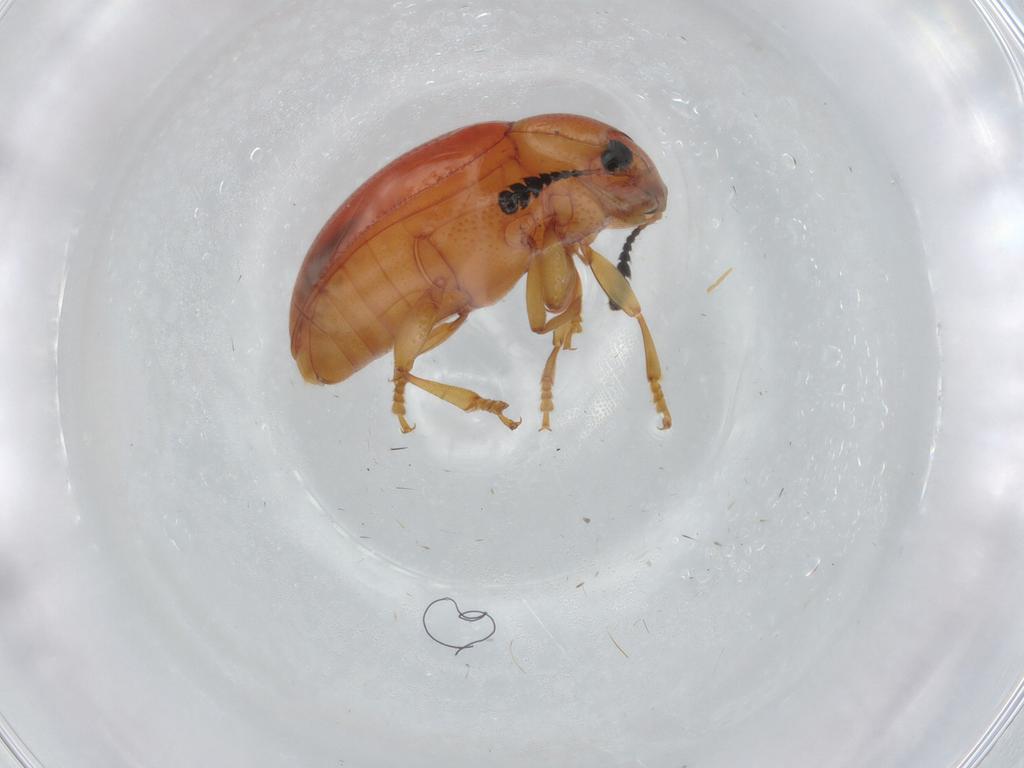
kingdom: Animalia
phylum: Arthropoda
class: Insecta
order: Coleoptera
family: Erotylidae
